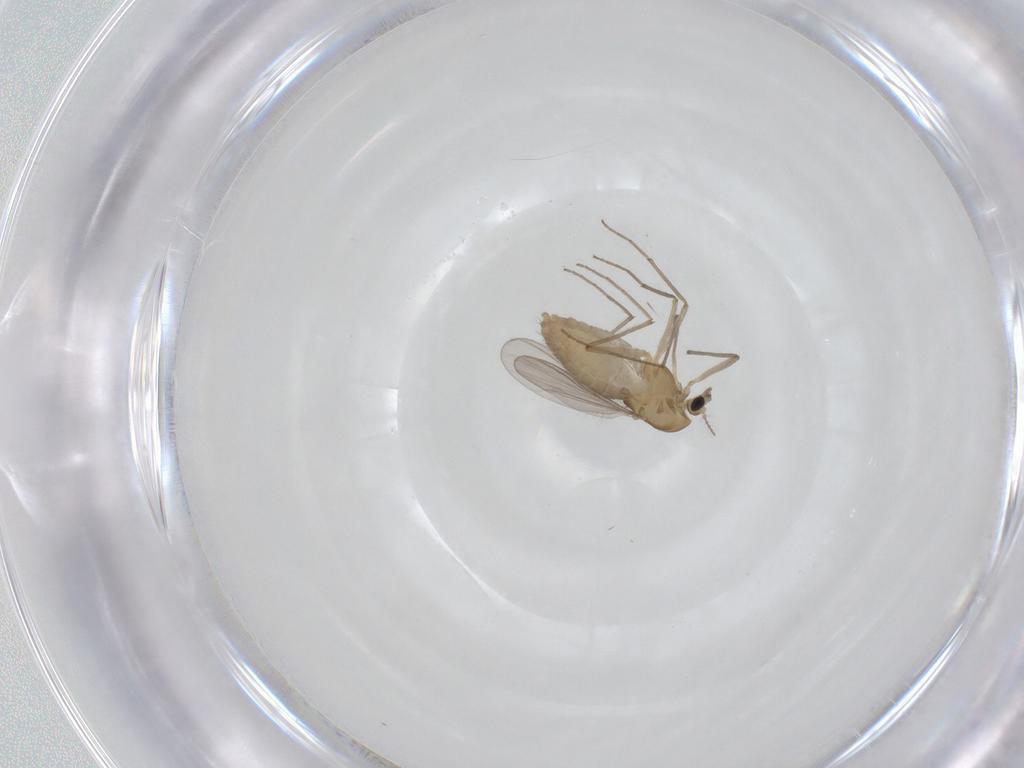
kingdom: Animalia
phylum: Arthropoda
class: Insecta
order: Diptera
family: Chironomidae
